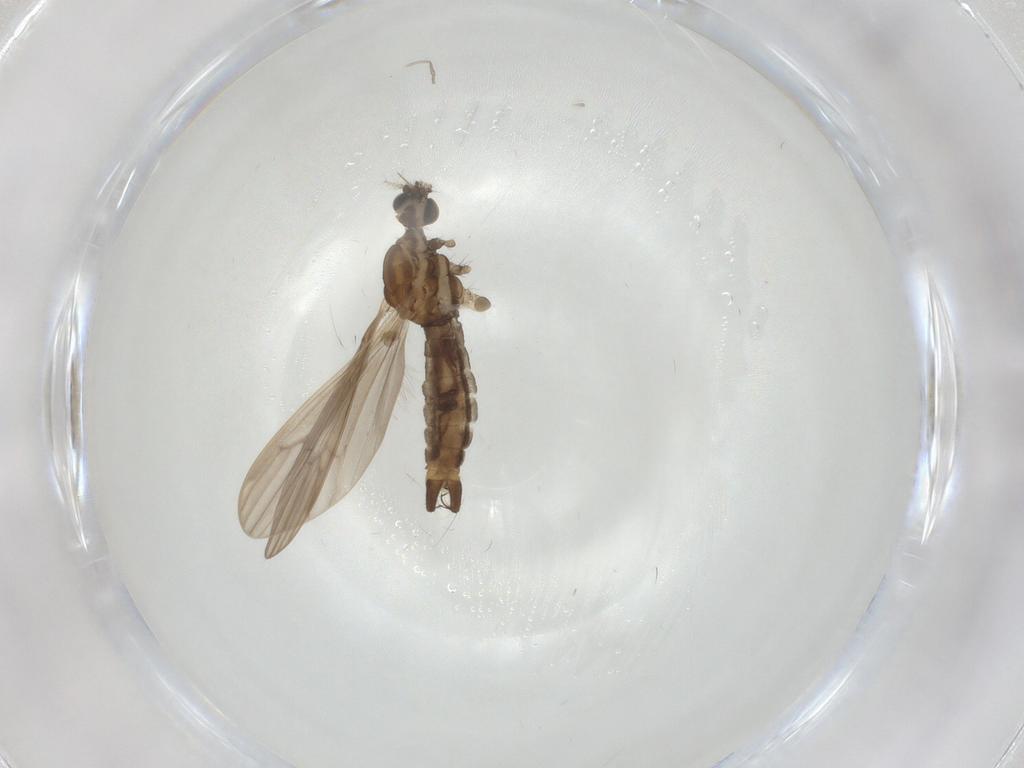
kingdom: Animalia
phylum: Arthropoda
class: Insecta
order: Diptera
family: Limoniidae
